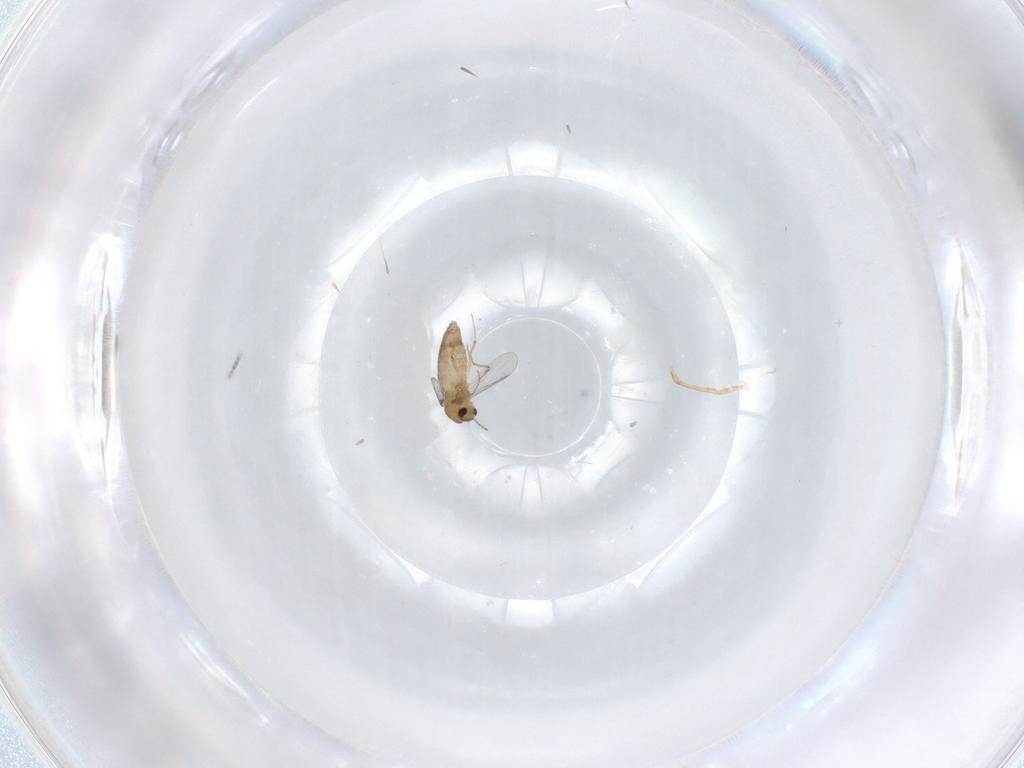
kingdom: Animalia
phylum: Arthropoda
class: Insecta
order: Diptera
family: Chironomidae
